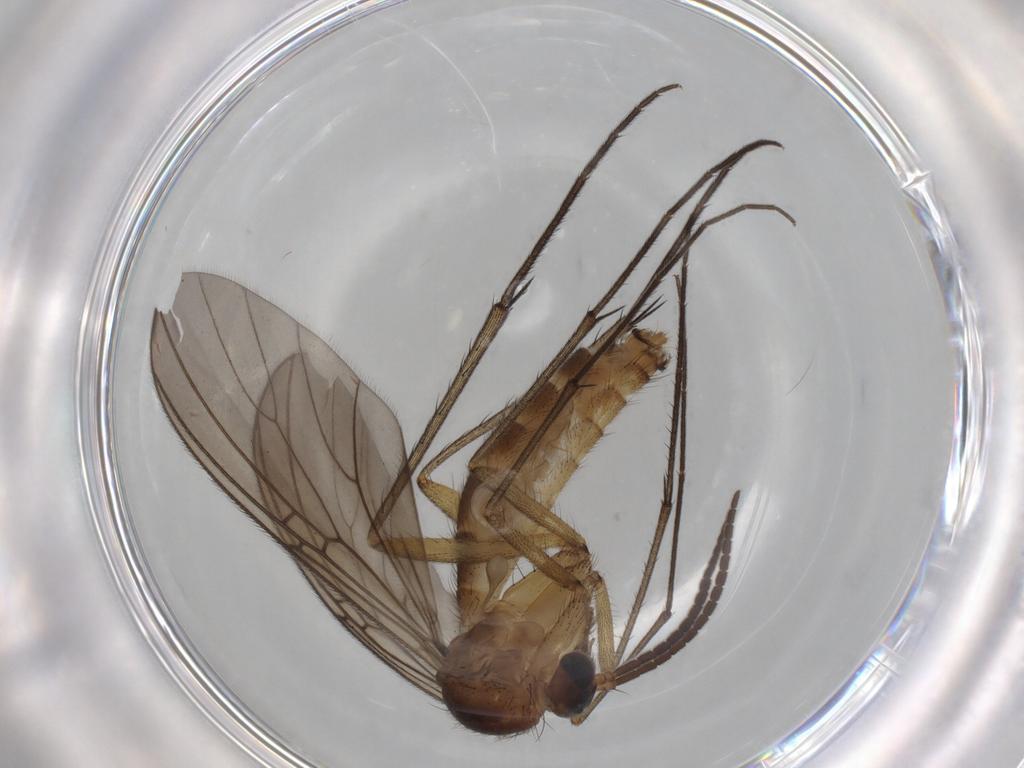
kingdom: Animalia
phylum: Arthropoda
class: Insecta
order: Diptera
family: Mycetophilidae
